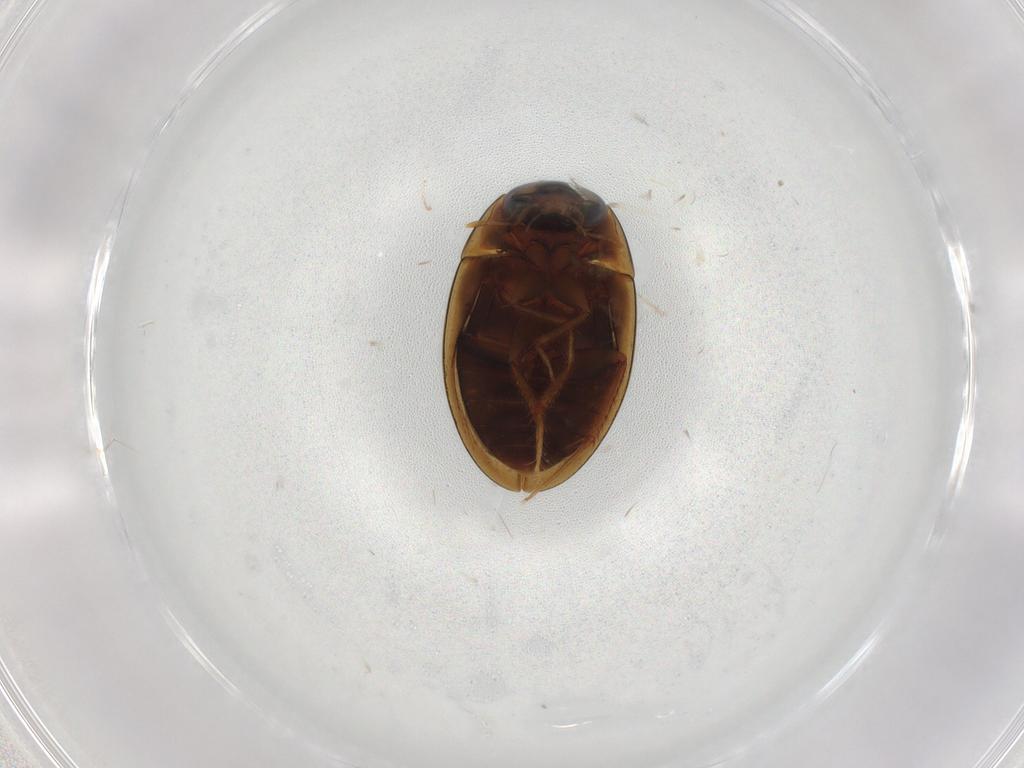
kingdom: Animalia
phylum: Arthropoda
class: Insecta
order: Coleoptera
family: Hydrophilidae
